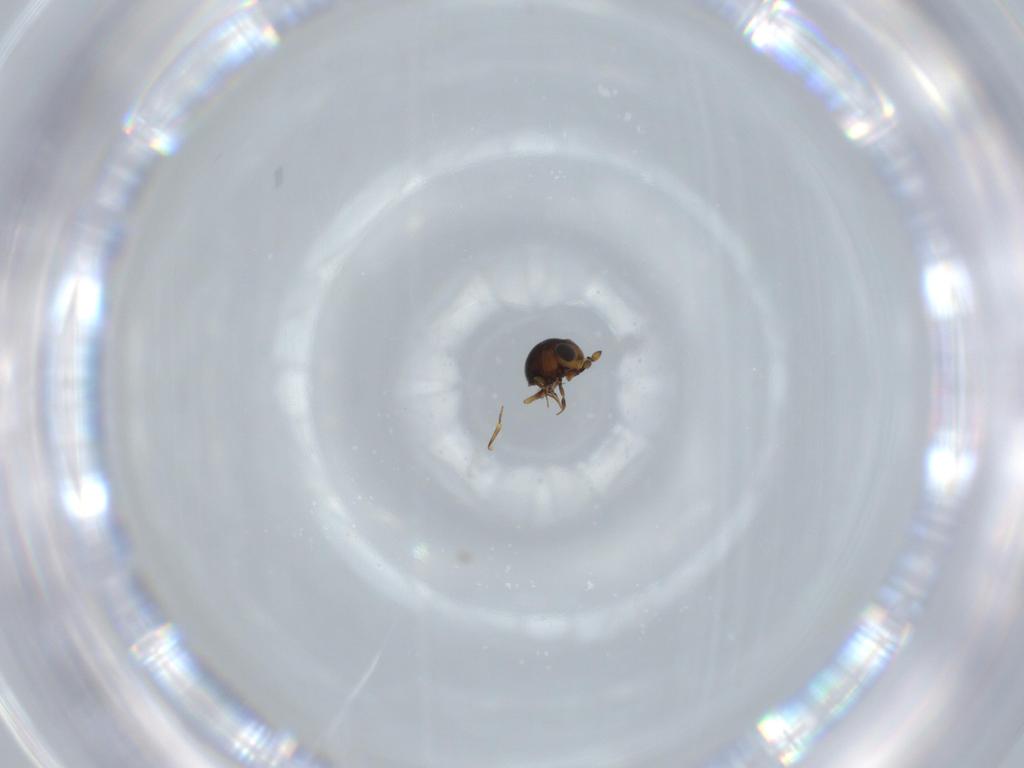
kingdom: Animalia
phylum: Arthropoda
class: Insecta
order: Hymenoptera
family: Scelionidae
